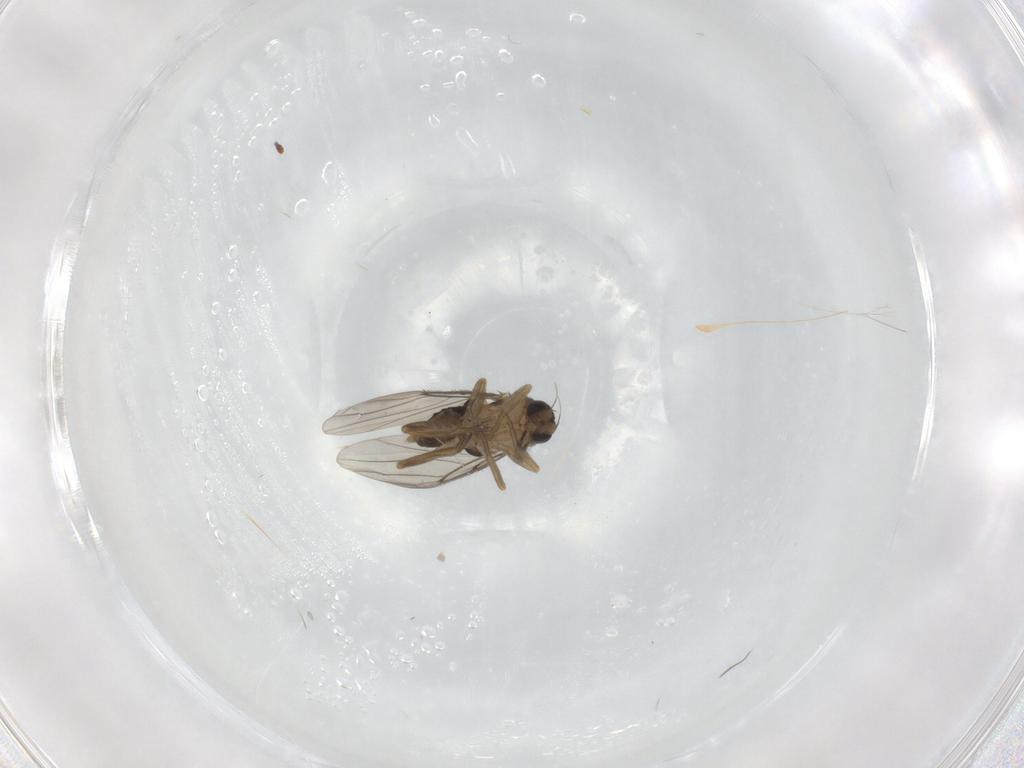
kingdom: Animalia
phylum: Arthropoda
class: Insecta
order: Diptera
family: Phoridae
